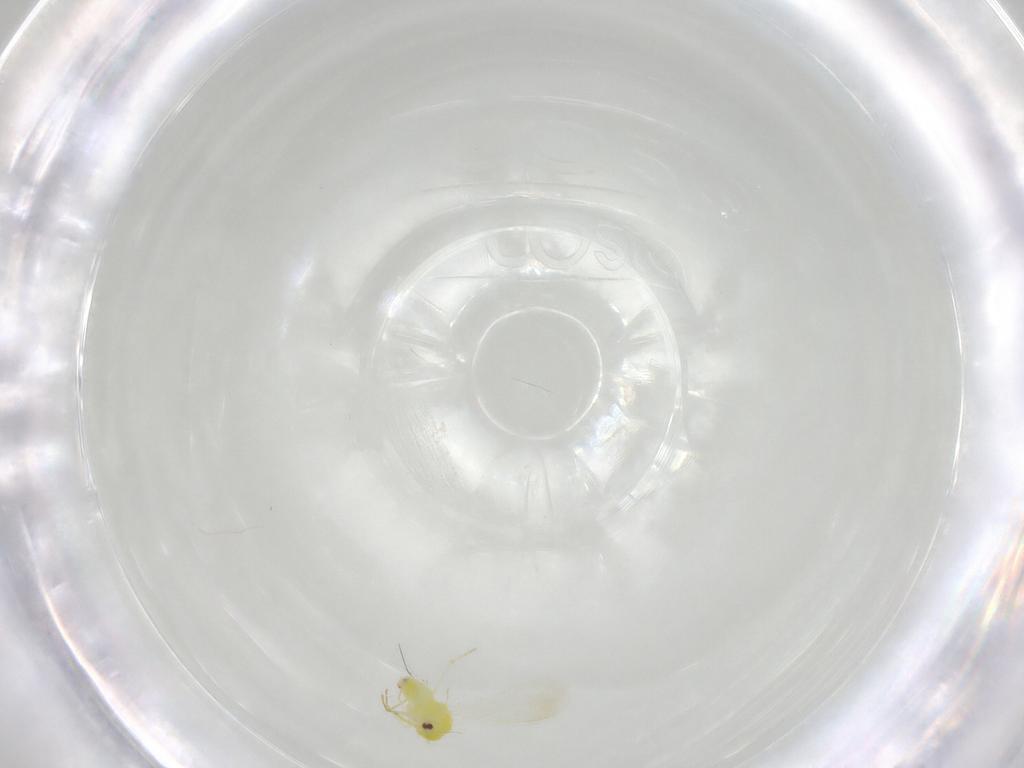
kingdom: Animalia
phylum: Arthropoda
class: Insecta
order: Hemiptera
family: Aleyrodidae
